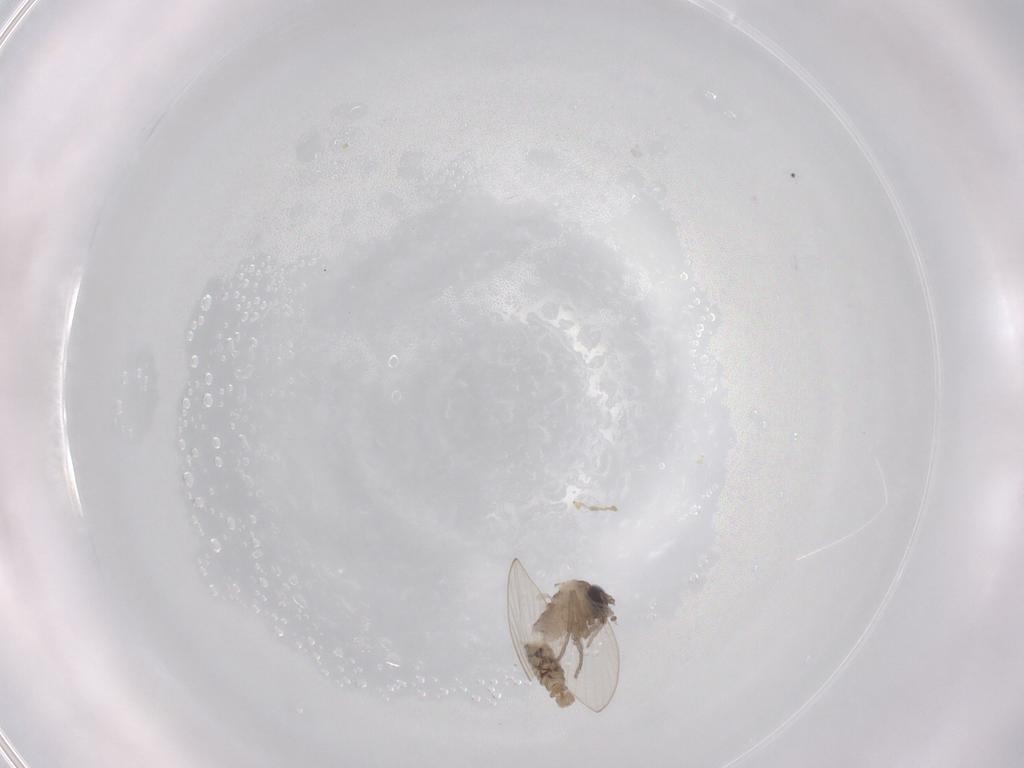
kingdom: Animalia
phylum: Arthropoda
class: Insecta
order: Diptera
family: Psychodidae
